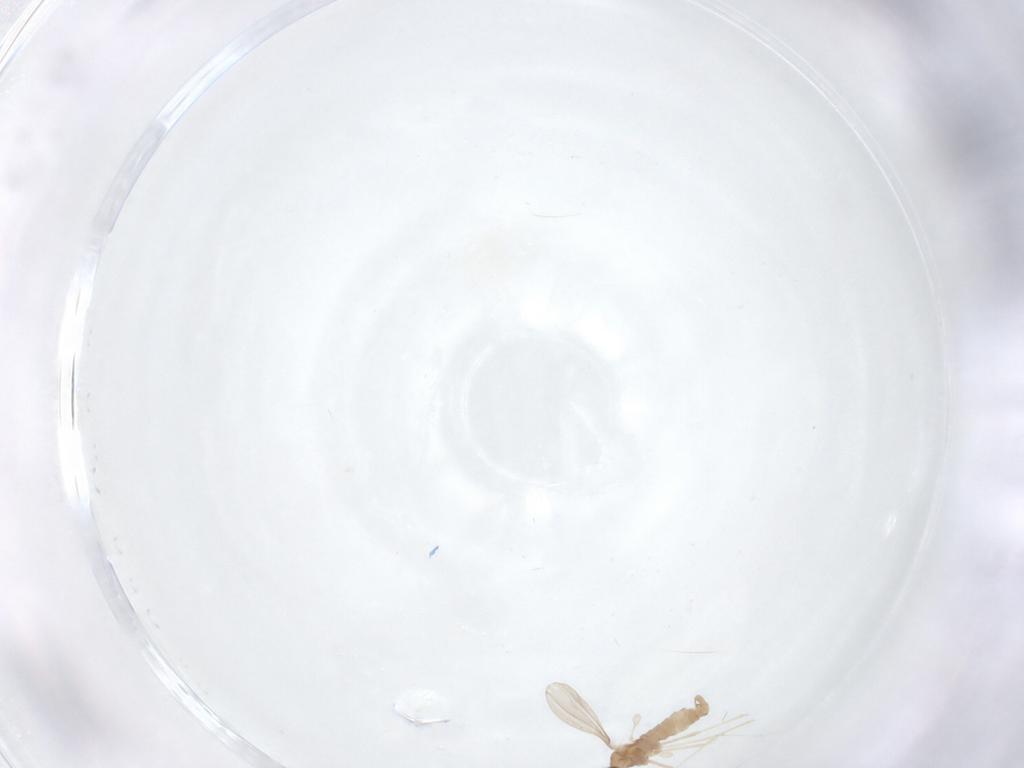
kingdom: Animalia
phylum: Arthropoda
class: Insecta
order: Diptera
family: Cecidomyiidae
